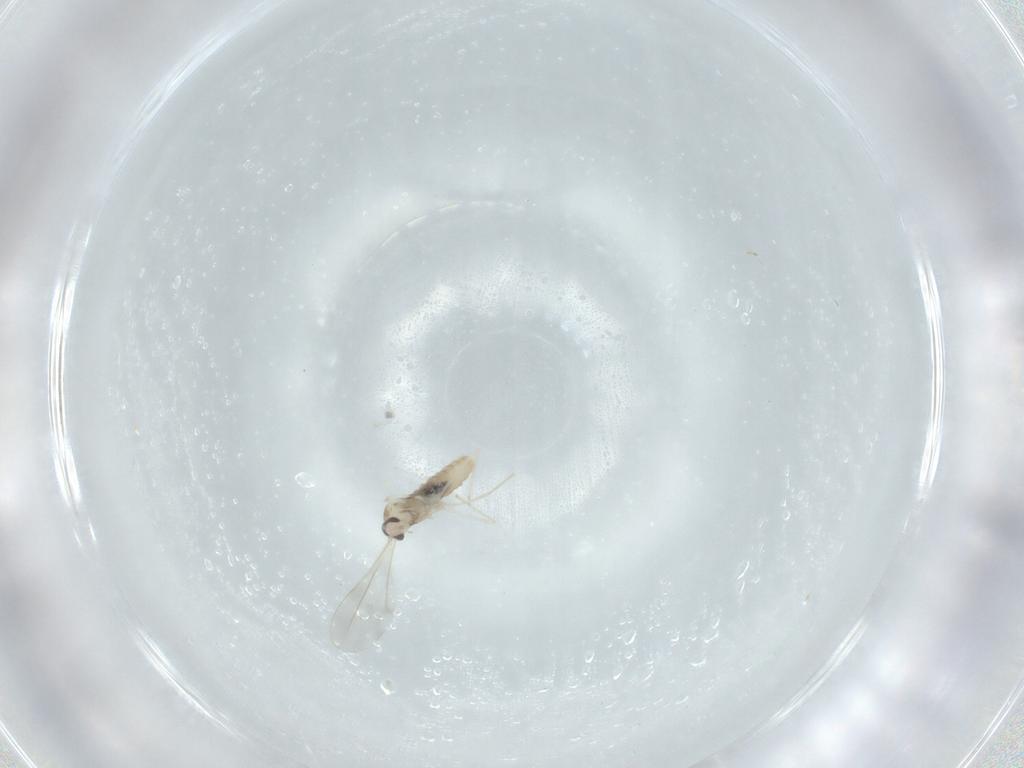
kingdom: Animalia
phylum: Arthropoda
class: Insecta
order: Diptera
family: Cecidomyiidae
